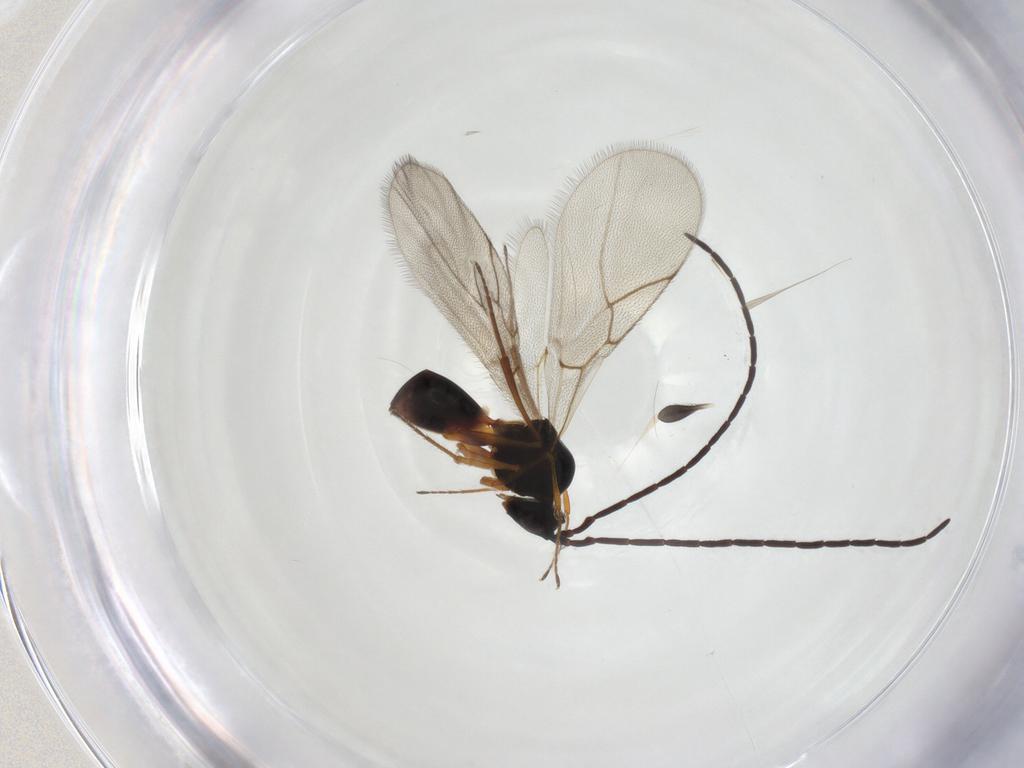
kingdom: Animalia
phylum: Arthropoda
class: Insecta
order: Hymenoptera
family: Figitidae
